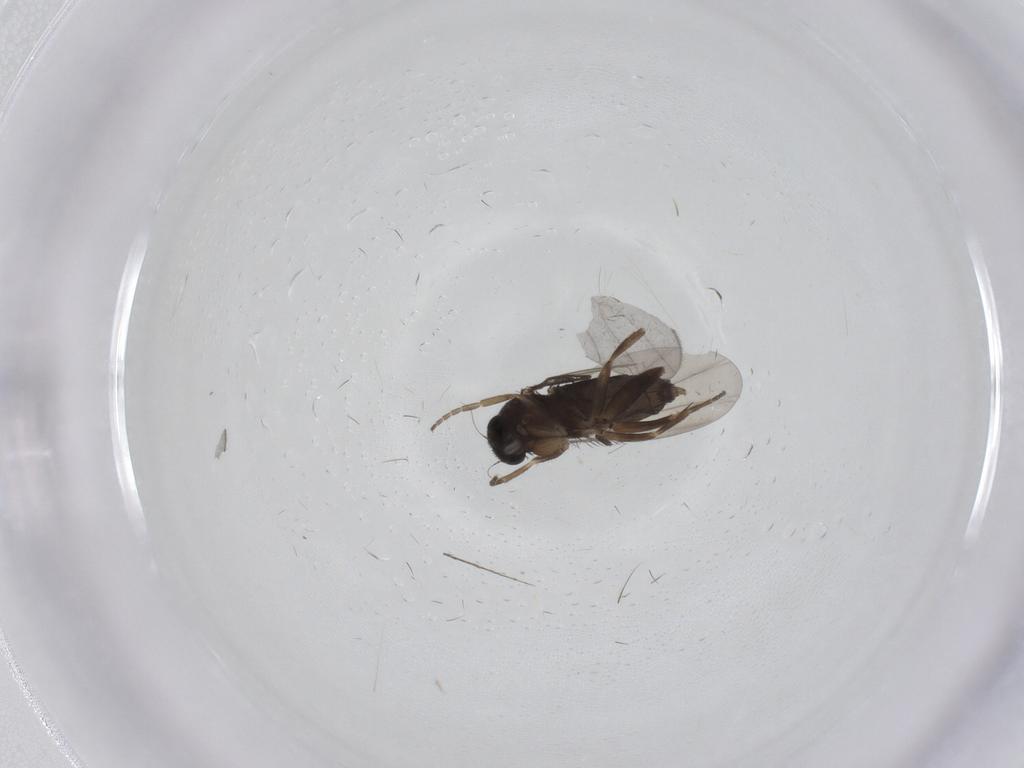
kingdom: Animalia
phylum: Arthropoda
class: Insecta
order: Diptera
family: Phoridae
